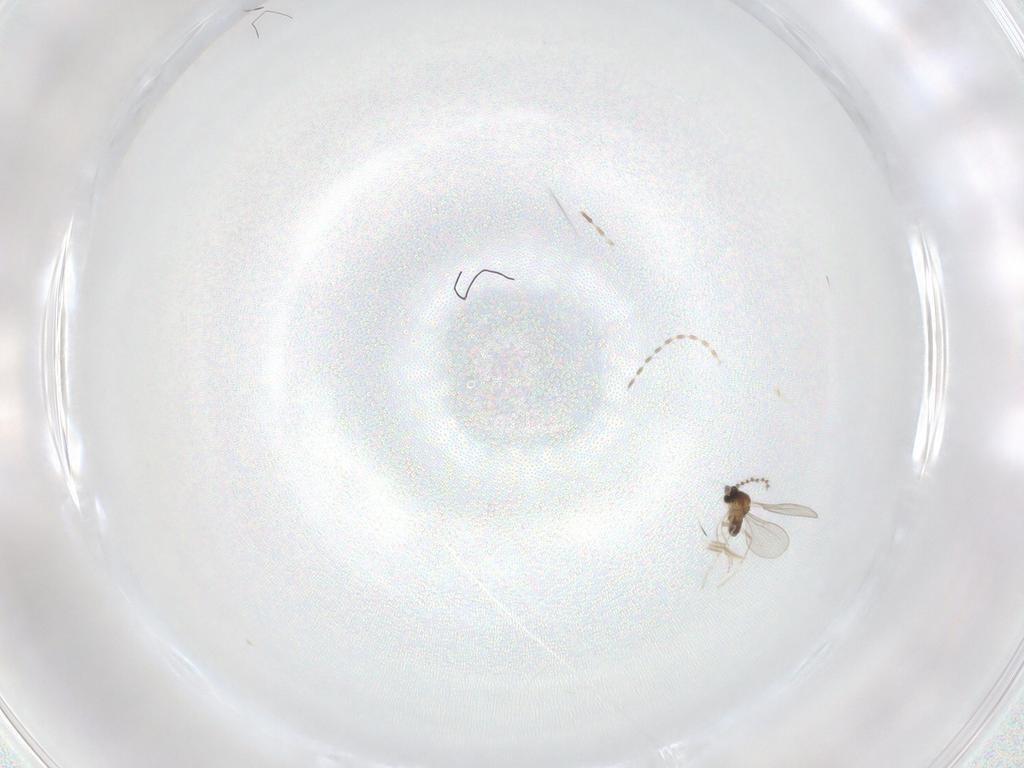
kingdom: Animalia
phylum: Arthropoda
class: Insecta
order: Diptera
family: Cecidomyiidae
